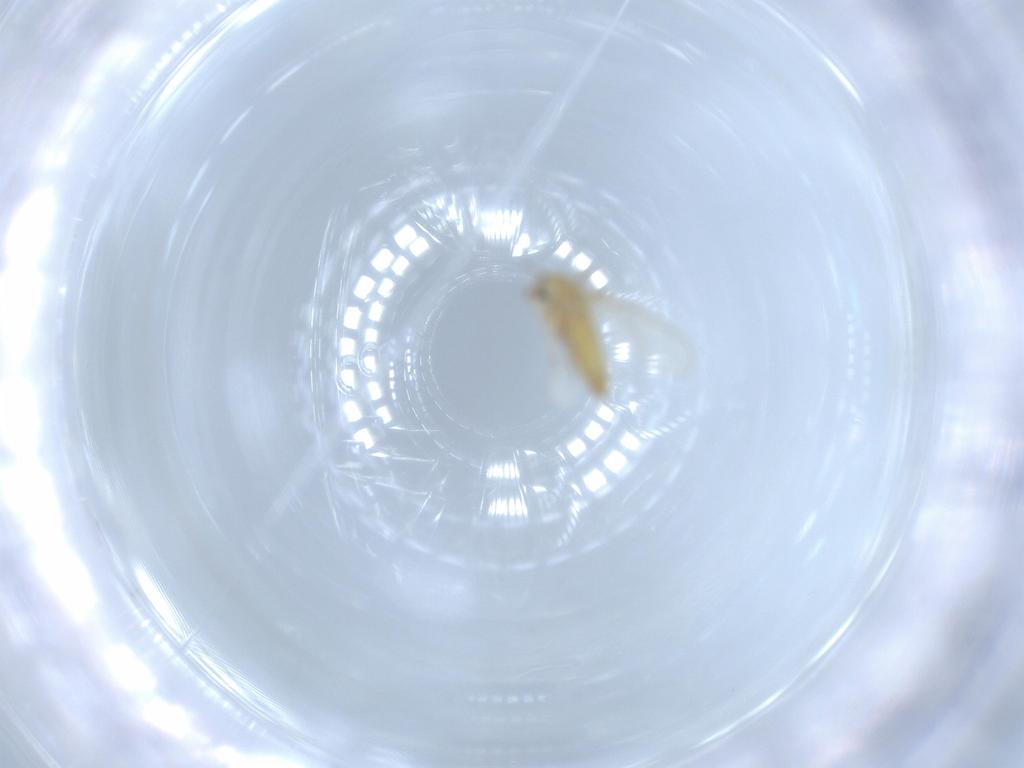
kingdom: Animalia
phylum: Arthropoda
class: Insecta
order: Diptera
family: Chironomidae
